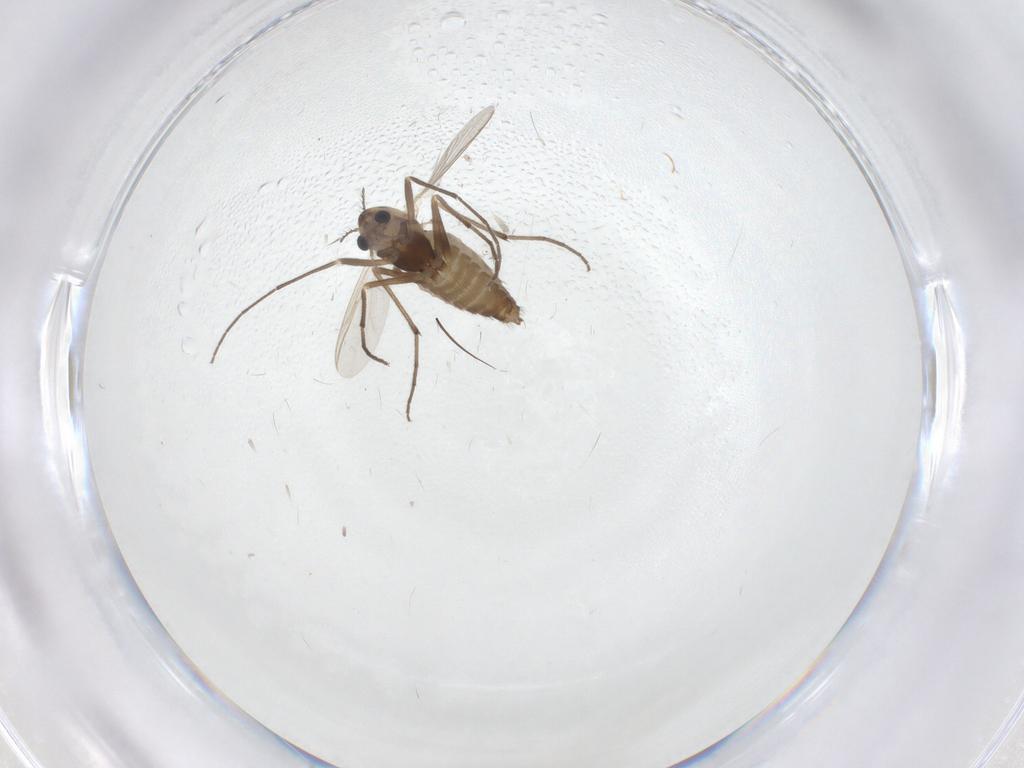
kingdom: Animalia
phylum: Arthropoda
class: Insecta
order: Diptera
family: Chironomidae
